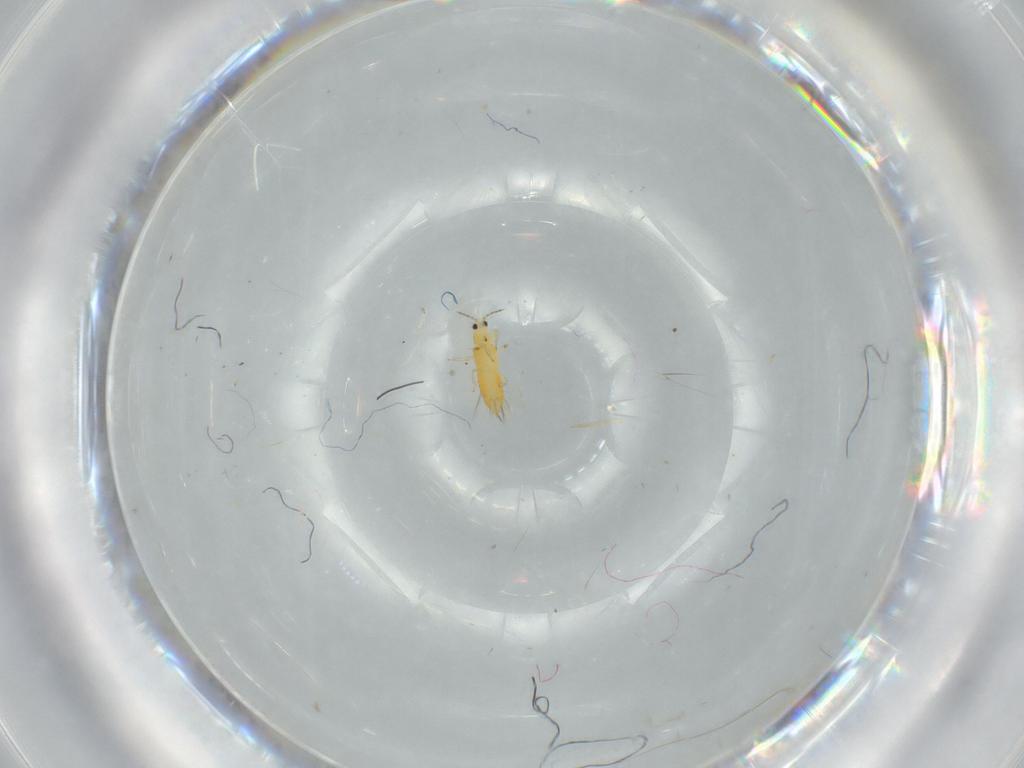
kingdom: Animalia
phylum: Arthropoda
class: Insecta
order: Thysanoptera
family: Thripidae
